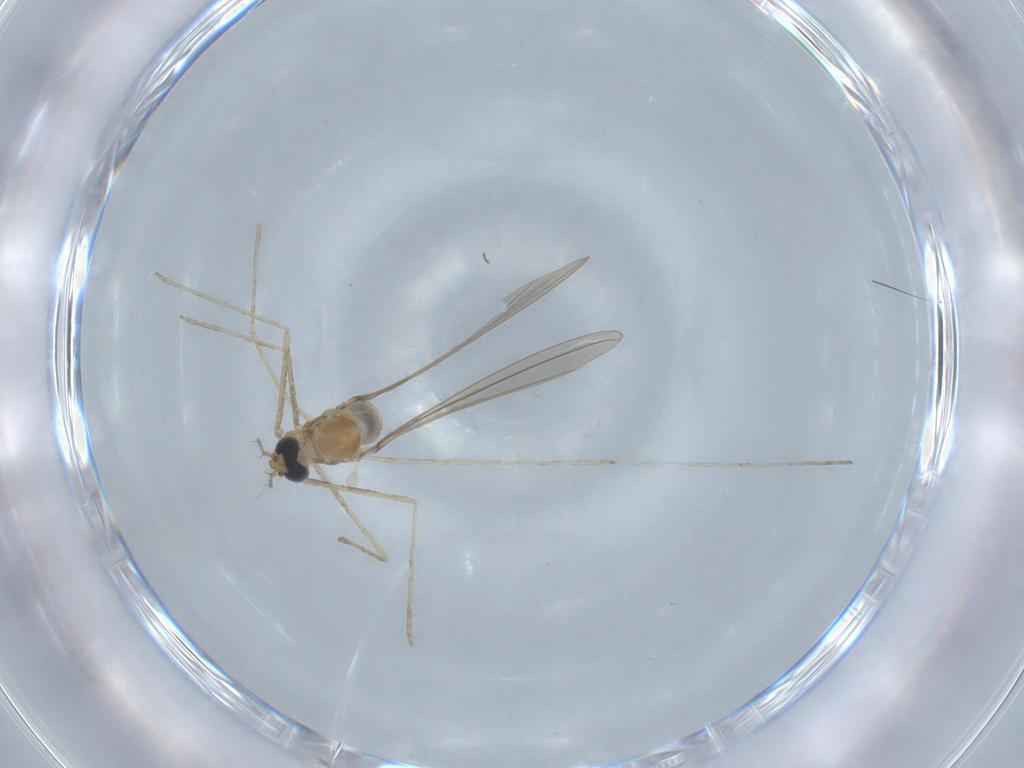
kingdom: Animalia
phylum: Arthropoda
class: Insecta
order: Diptera
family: Cecidomyiidae
